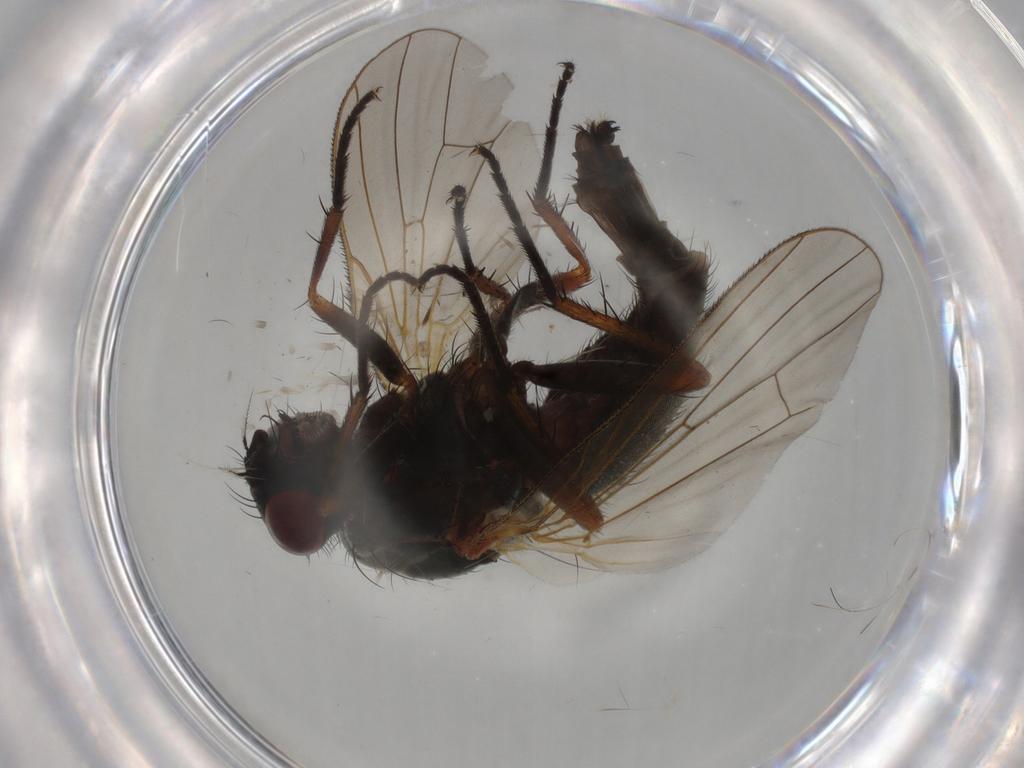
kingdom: Animalia
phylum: Arthropoda
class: Insecta
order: Diptera
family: Anthomyiidae
